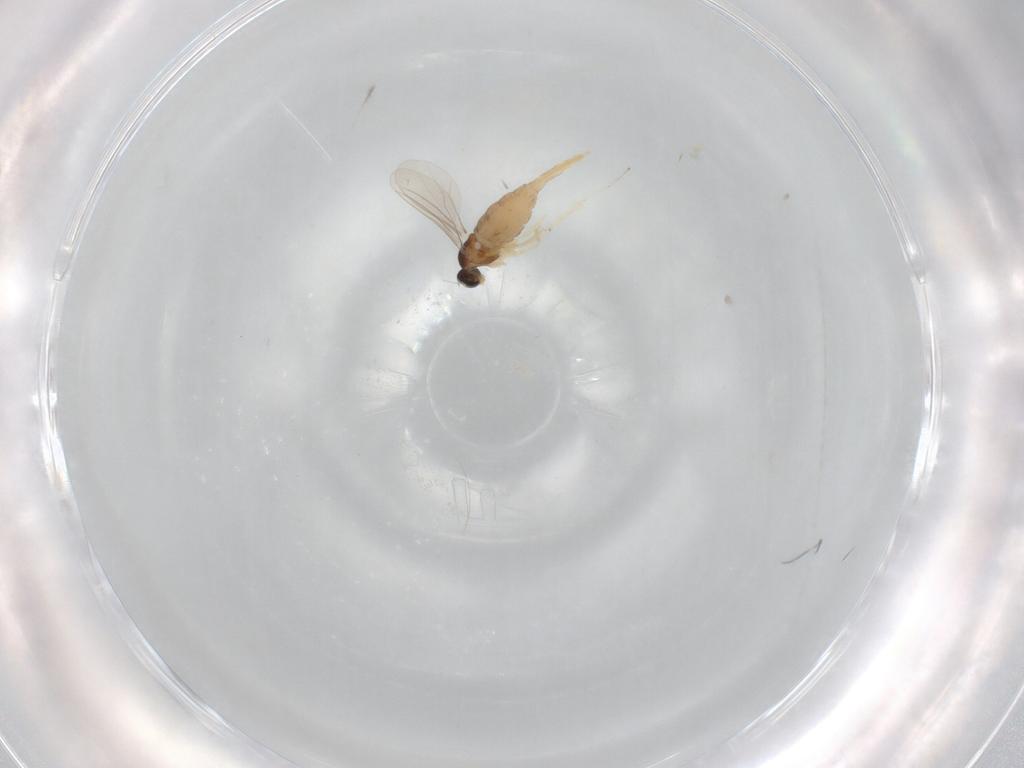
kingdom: Animalia
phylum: Arthropoda
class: Insecta
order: Diptera
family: Cecidomyiidae
